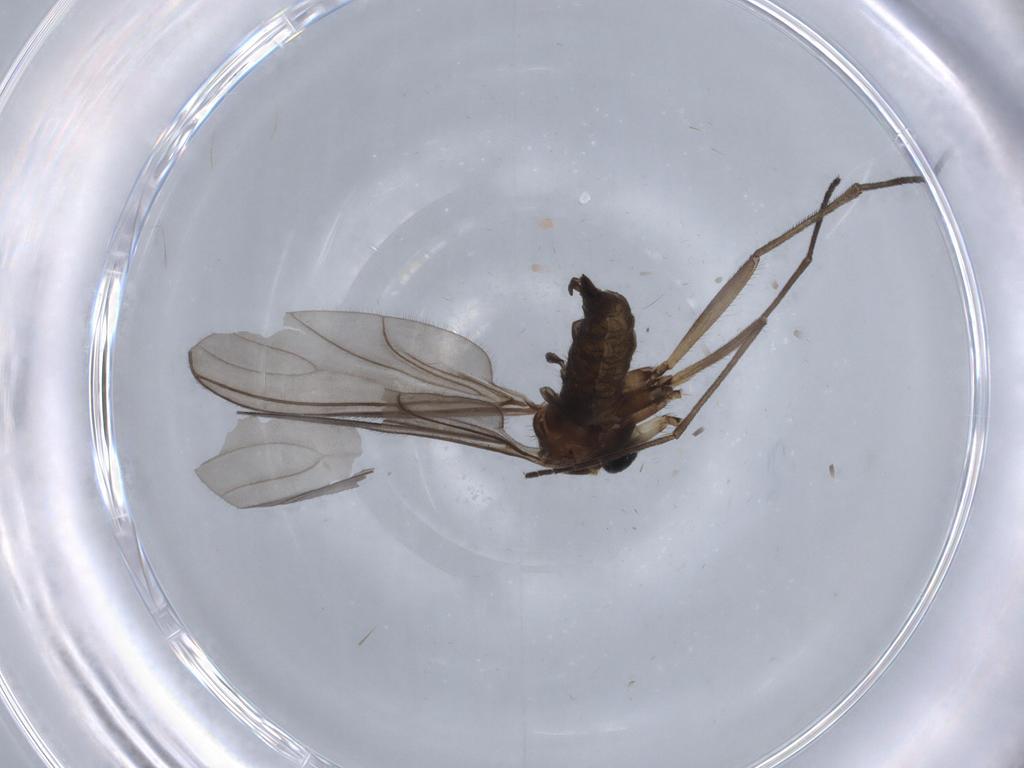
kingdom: Animalia
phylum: Arthropoda
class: Insecta
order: Diptera
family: Sciaridae
